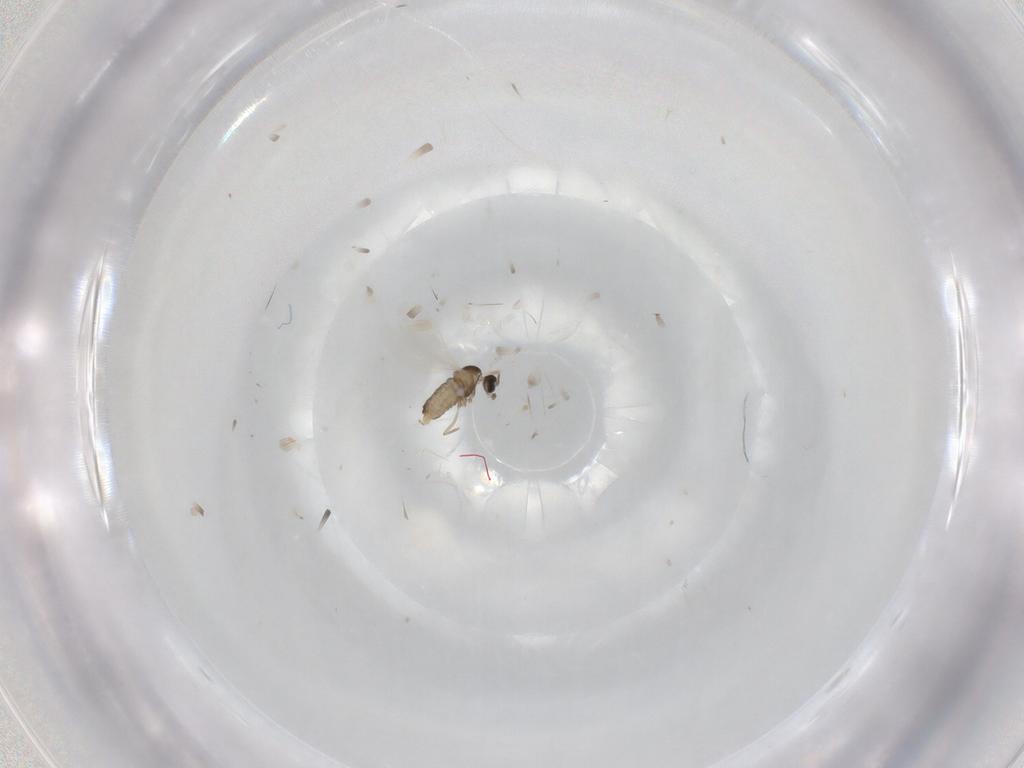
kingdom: Animalia
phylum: Arthropoda
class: Insecta
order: Diptera
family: Cecidomyiidae
